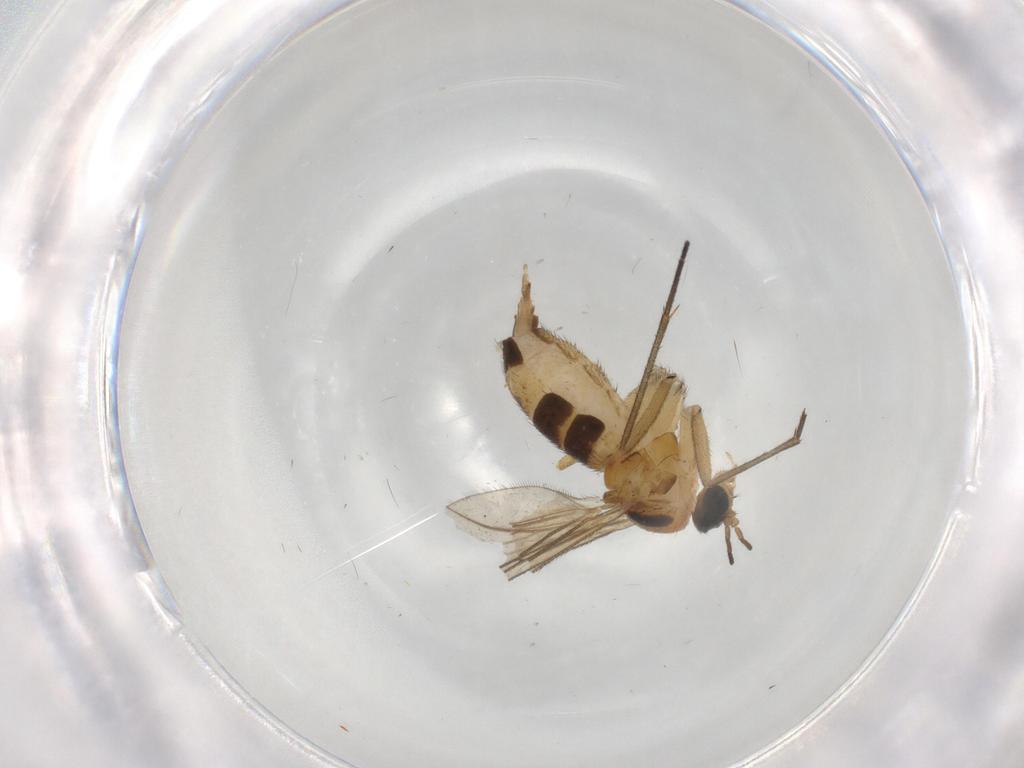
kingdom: Animalia
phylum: Arthropoda
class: Insecta
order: Diptera
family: Sciaridae
